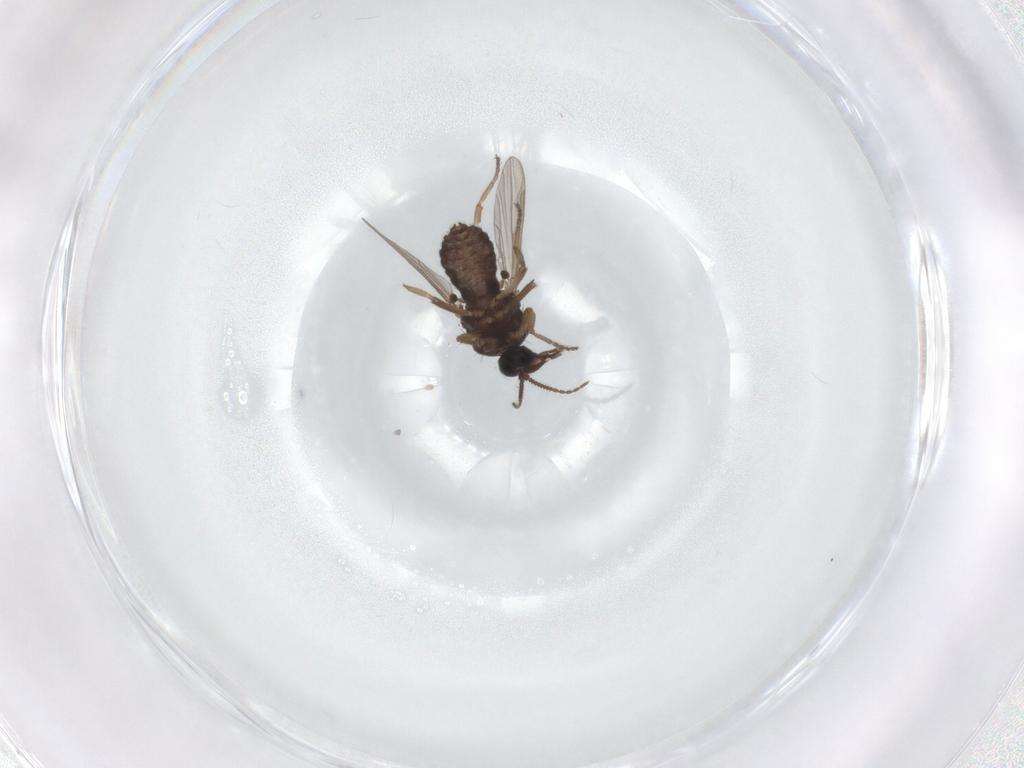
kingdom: Animalia
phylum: Arthropoda
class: Insecta
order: Diptera
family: Ceratopogonidae
